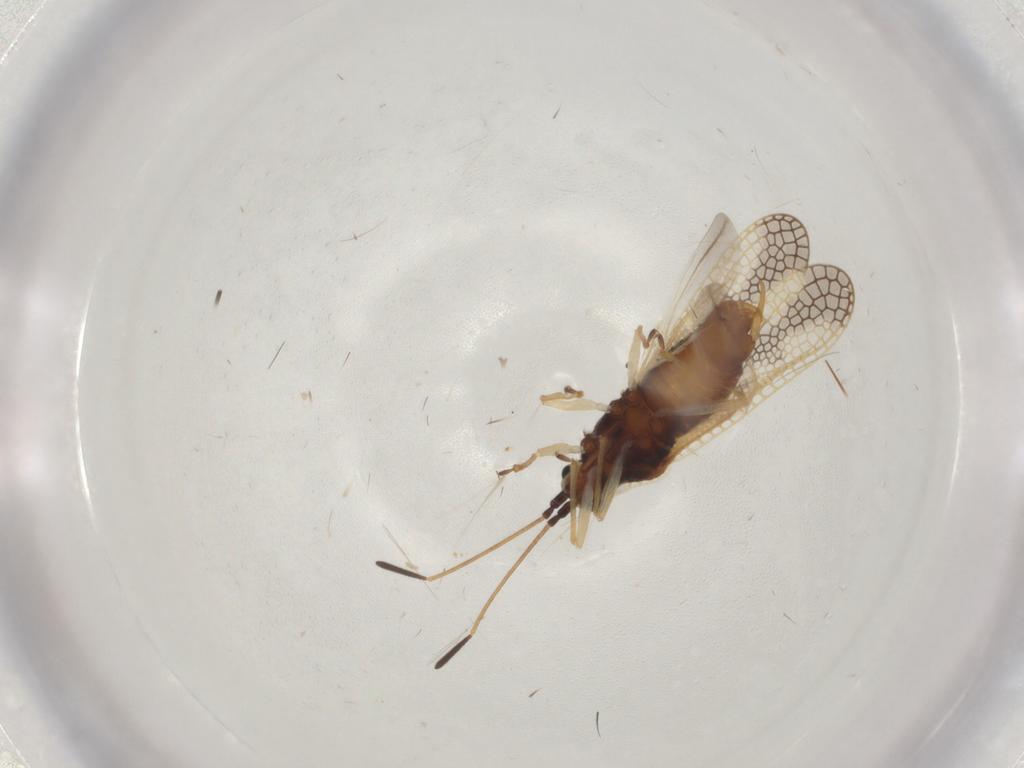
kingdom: Animalia
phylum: Arthropoda
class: Insecta
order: Hemiptera
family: Tingidae
